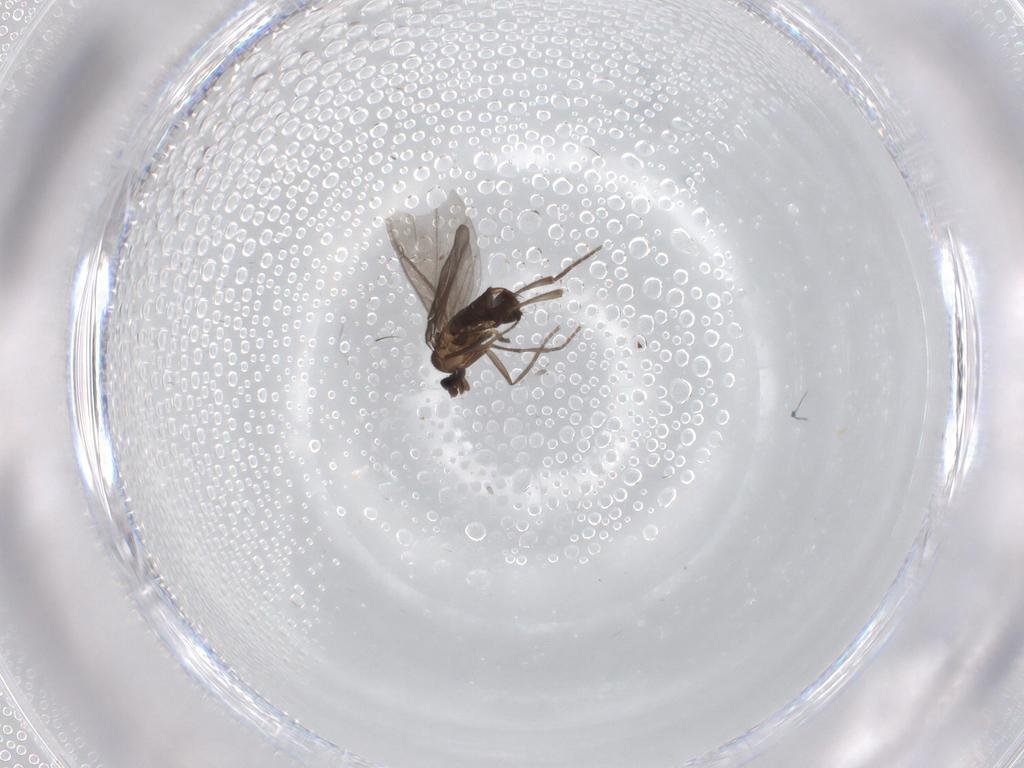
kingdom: Animalia
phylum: Arthropoda
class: Insecta
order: Diptera
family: Phoridae
